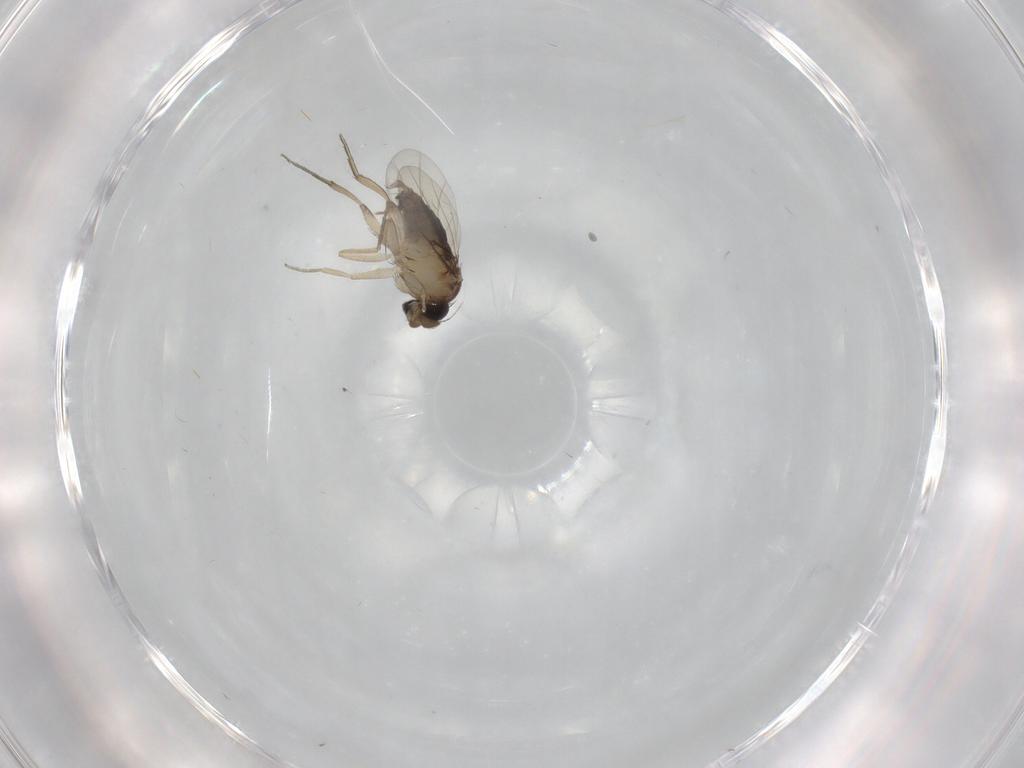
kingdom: Animalia
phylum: Arthropoda
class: Insecta
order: Diptera
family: Phoridae
